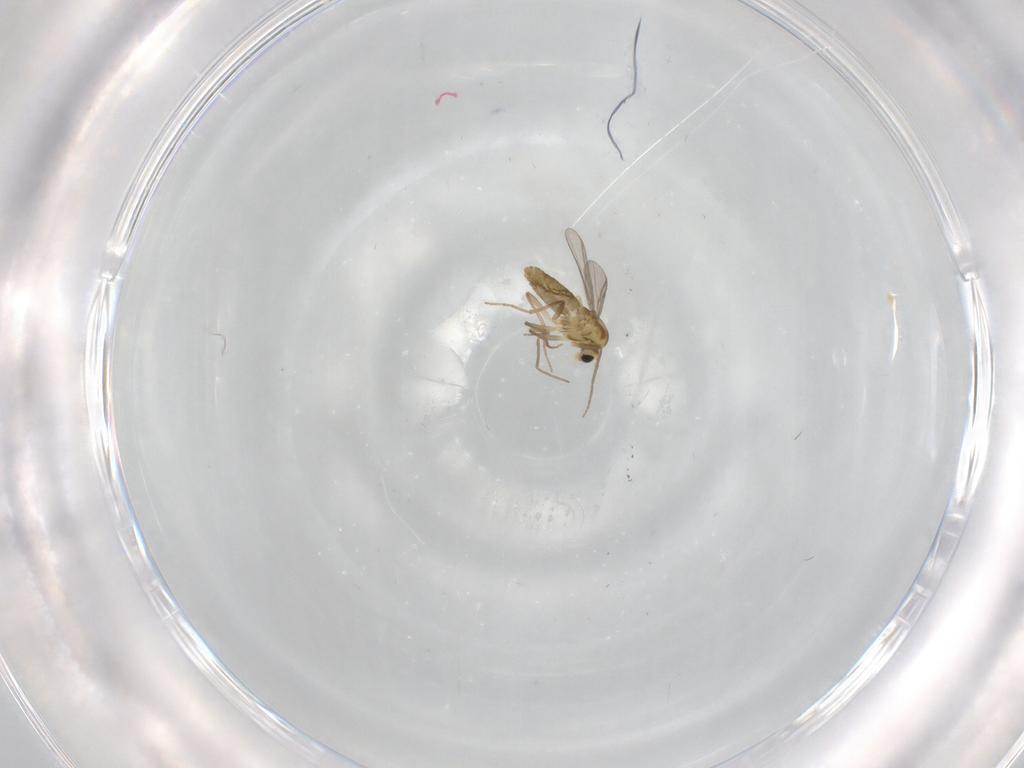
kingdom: Animalia
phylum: Arthropoda
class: Insecta
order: Diptera
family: Chironomidae
